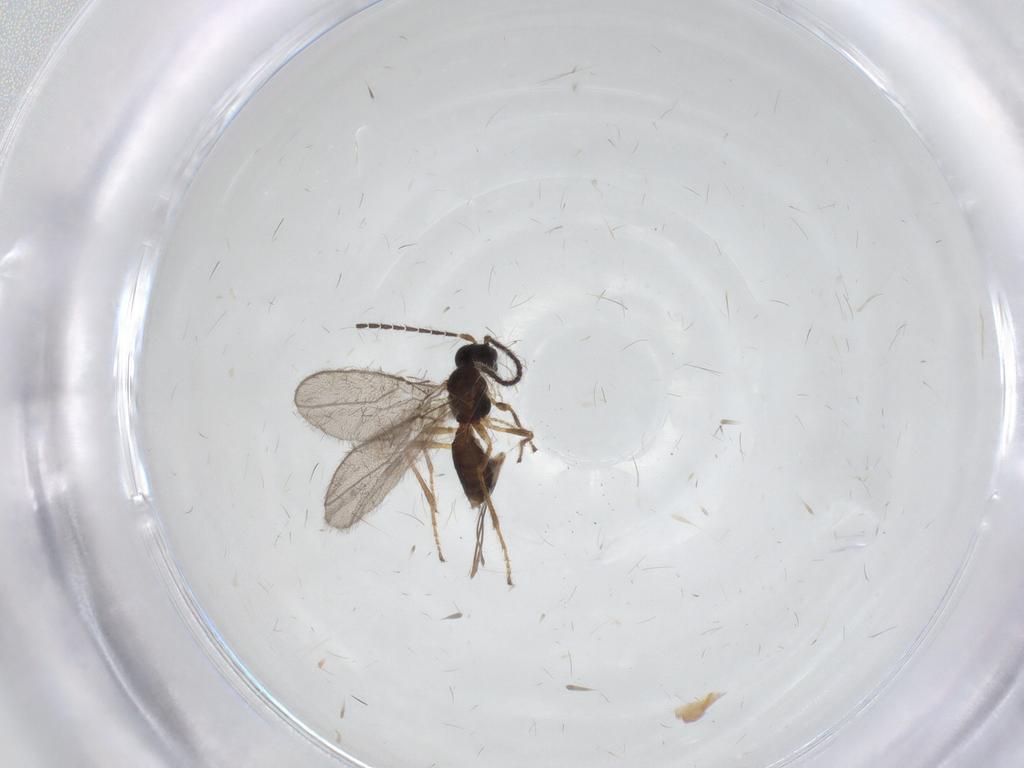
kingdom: Animalia
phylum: Arthropoda
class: Insecta
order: Hymenoptera
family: Braconidae
